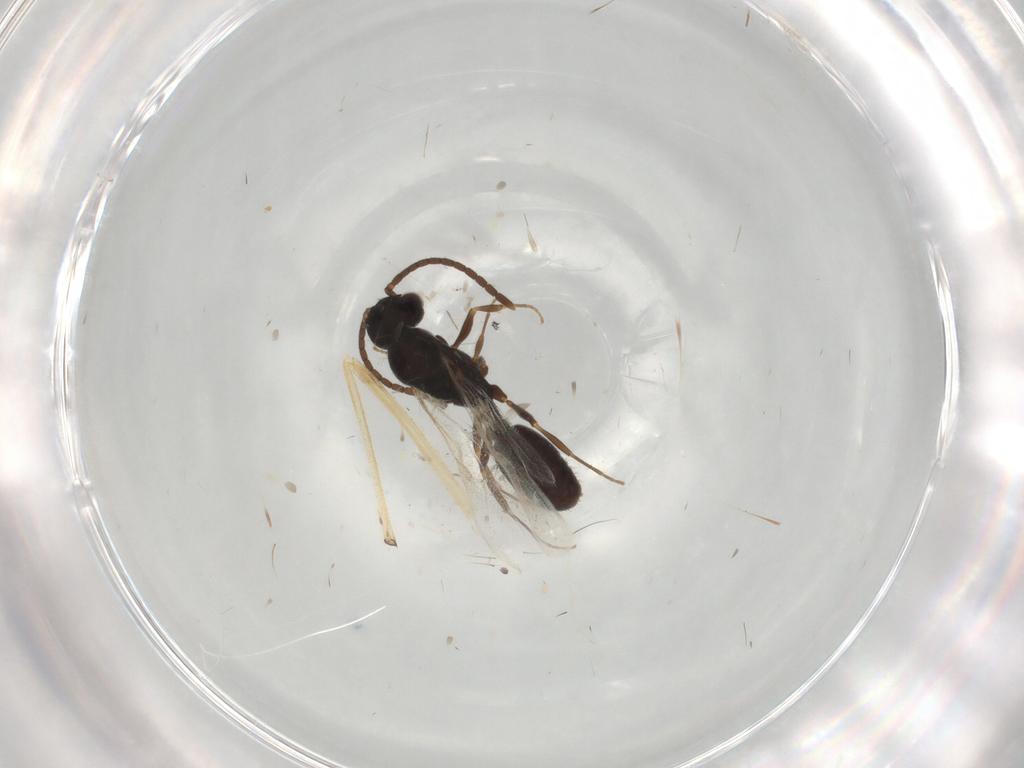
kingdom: Animalia
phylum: Arthropoda
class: Insecta
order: Hymenoptera
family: Formicidae
